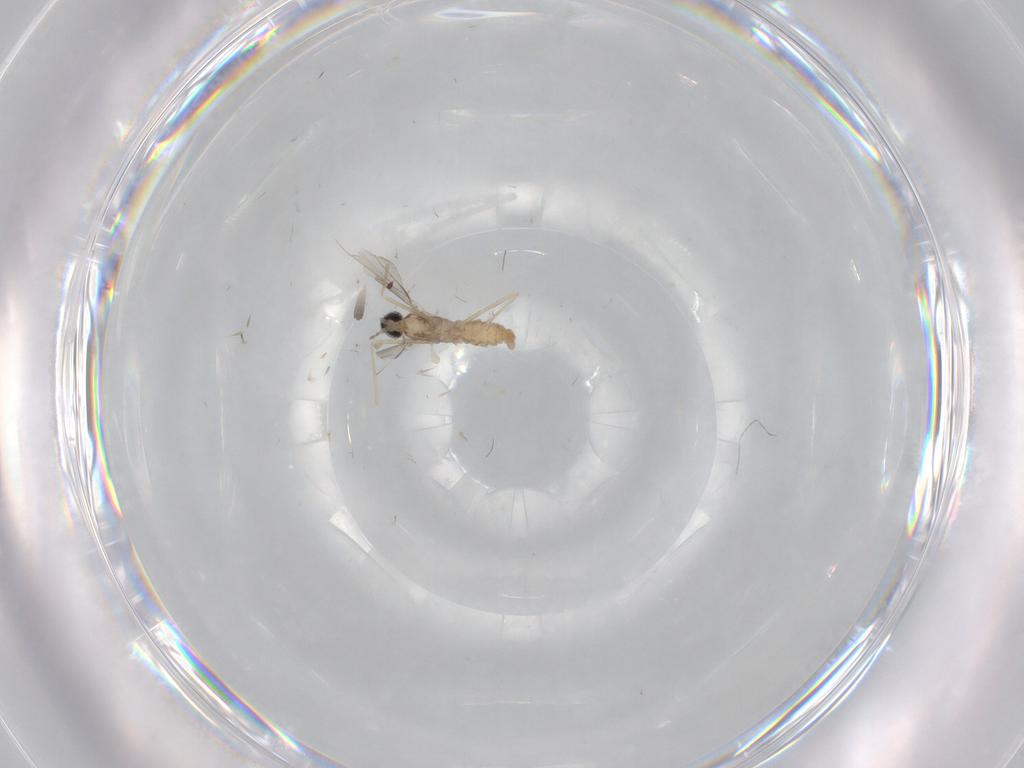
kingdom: Animalia
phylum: Arthropoda
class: Insecta
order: Diptera
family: Cecidomyiidae
